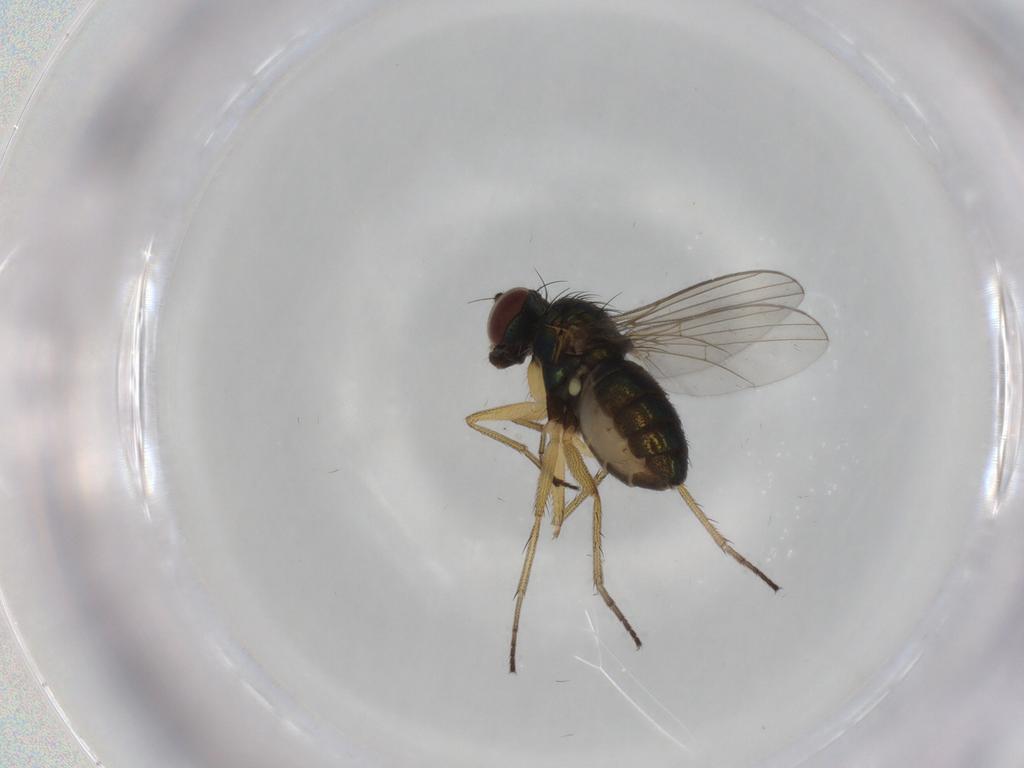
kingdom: Animalia
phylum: Arthropoda
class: Insecta
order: Diptera
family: Dolichopodidae
